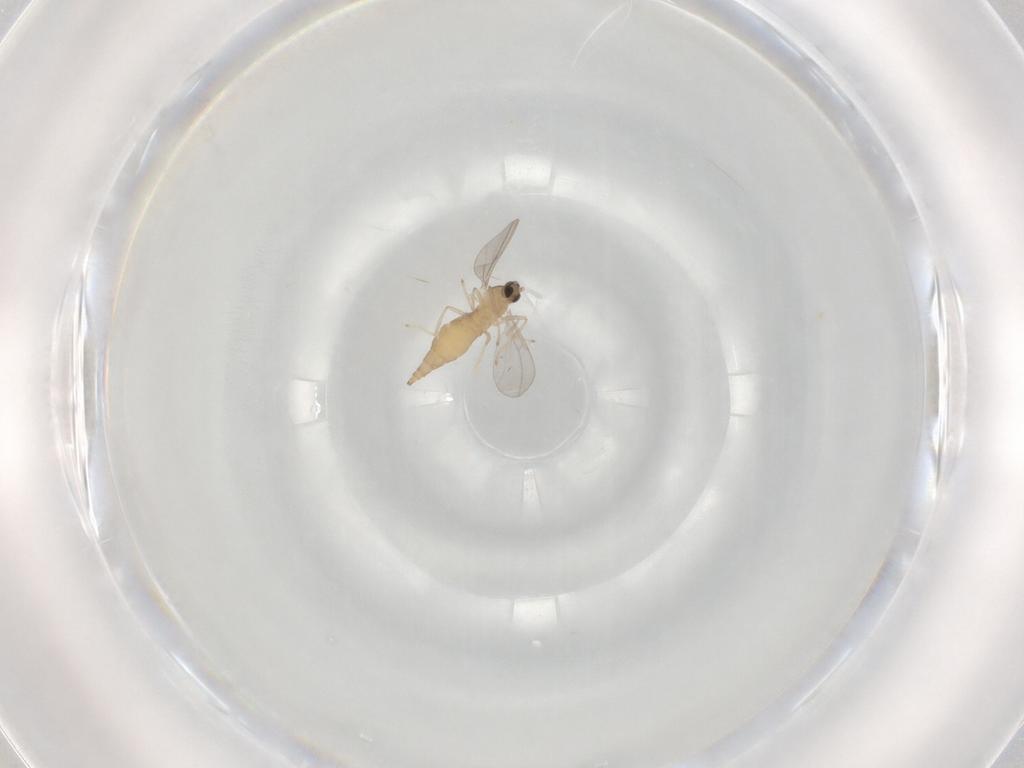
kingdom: Animalia
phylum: Arthropoda
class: Insecta
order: Diptera
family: Cecidomyiidae
